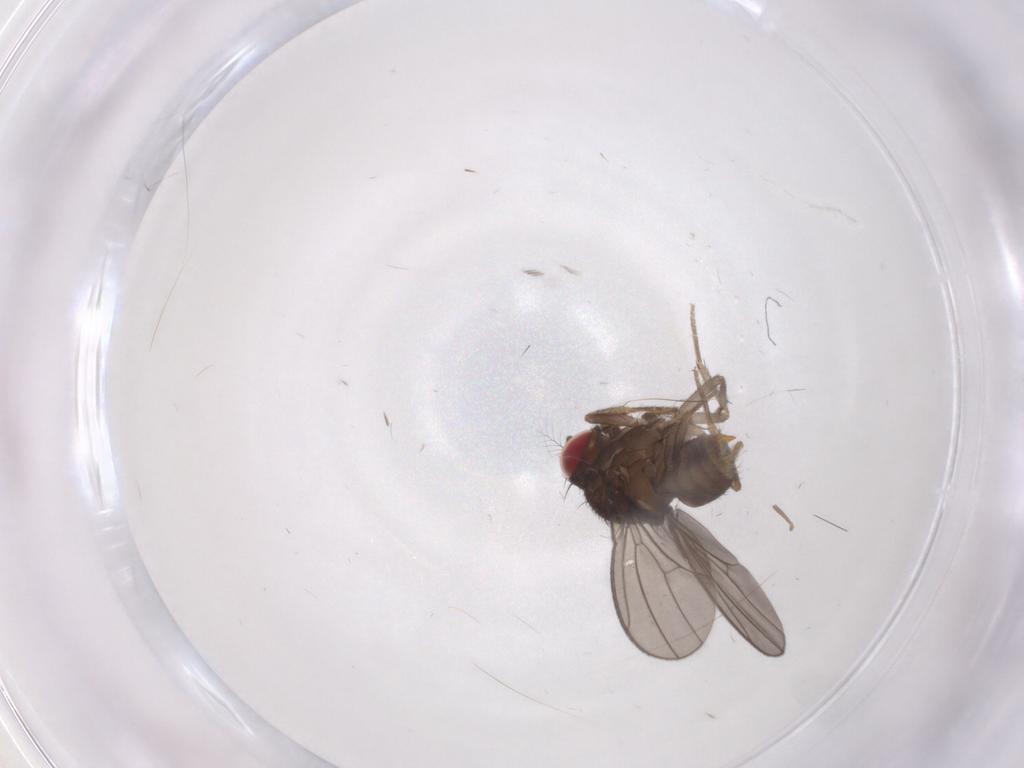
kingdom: Animalia
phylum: Arthropoda
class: Insecta
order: Diptera
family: Drosophilidae
